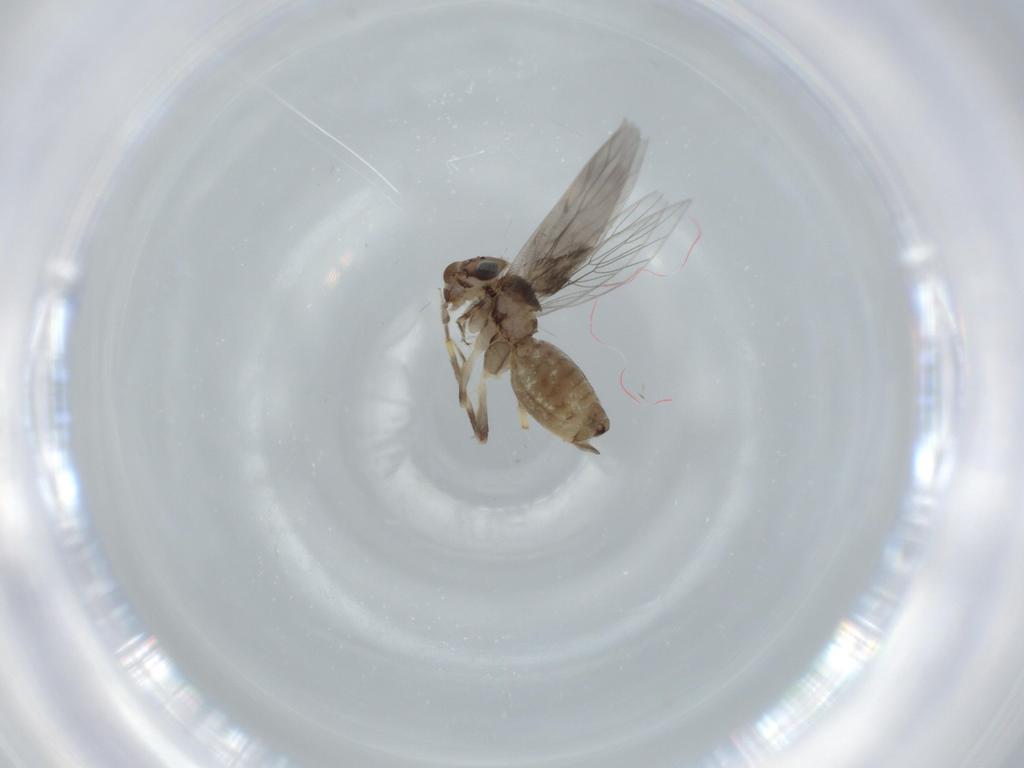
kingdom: Animalia
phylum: Arthropoda
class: Insecta
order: Psocodea
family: Lepidopsocidae
